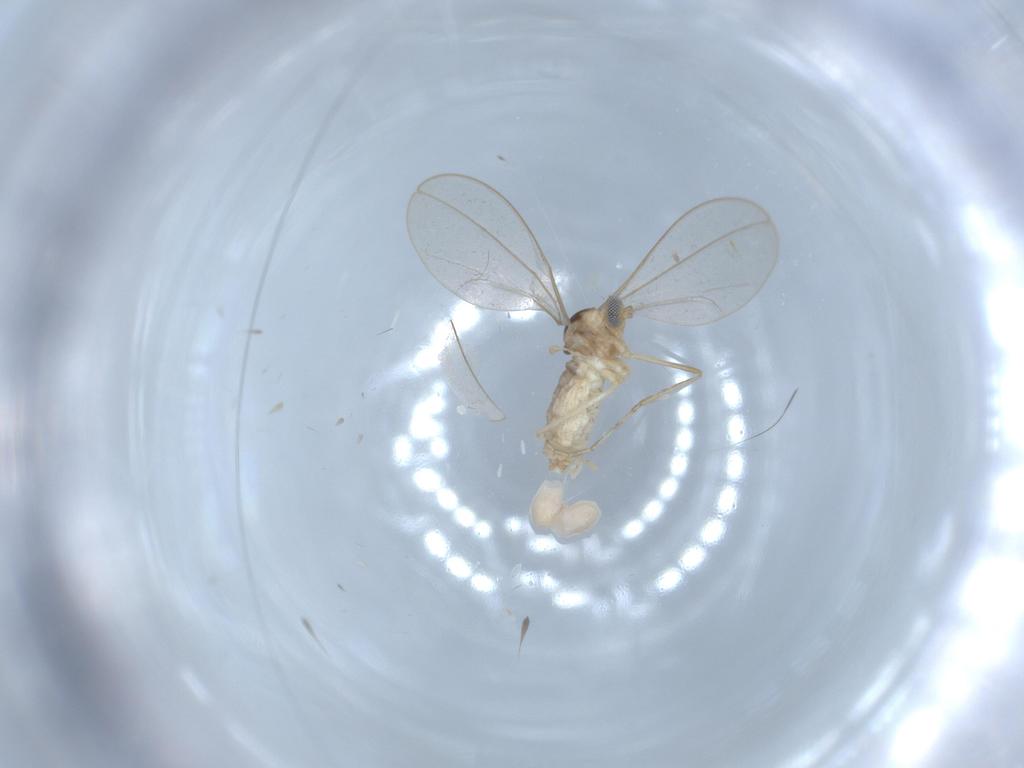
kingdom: Animalia
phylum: Arthropoda
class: Insecta
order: Diptera
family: Cecidomyiidae
